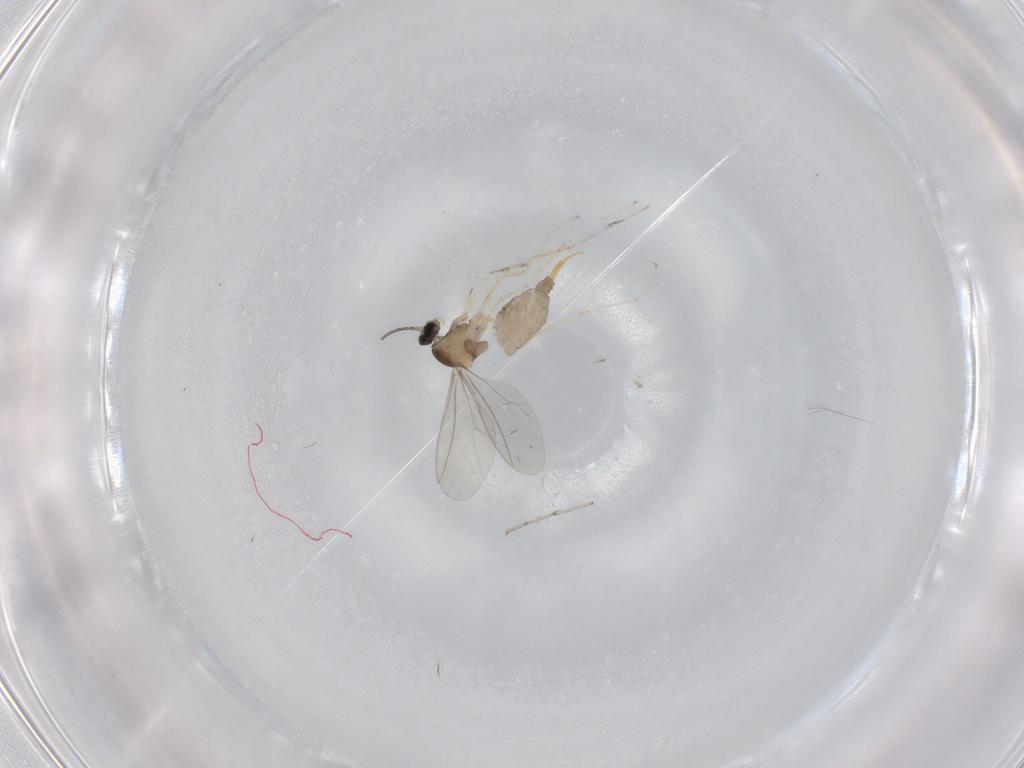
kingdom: Animalia
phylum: Arthropoda
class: Insecta
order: Diptera
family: Cecidomyiidae
